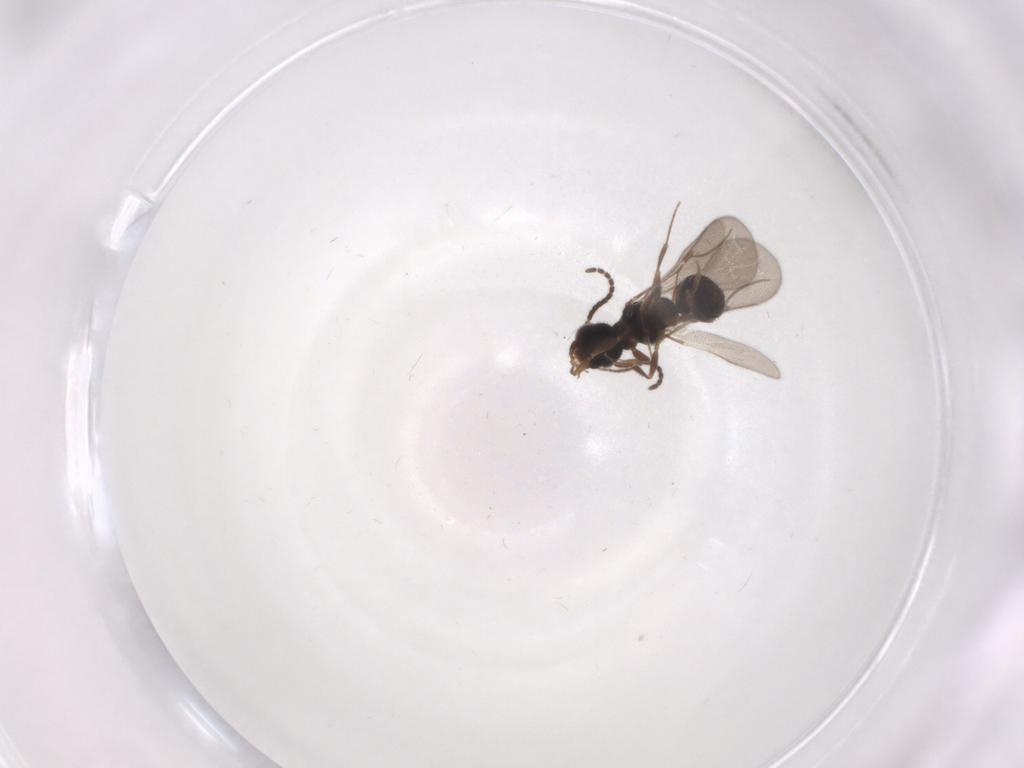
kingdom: Animalia
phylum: Arthropoda
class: Insecta
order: Hymenoptera
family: Bethylidae
